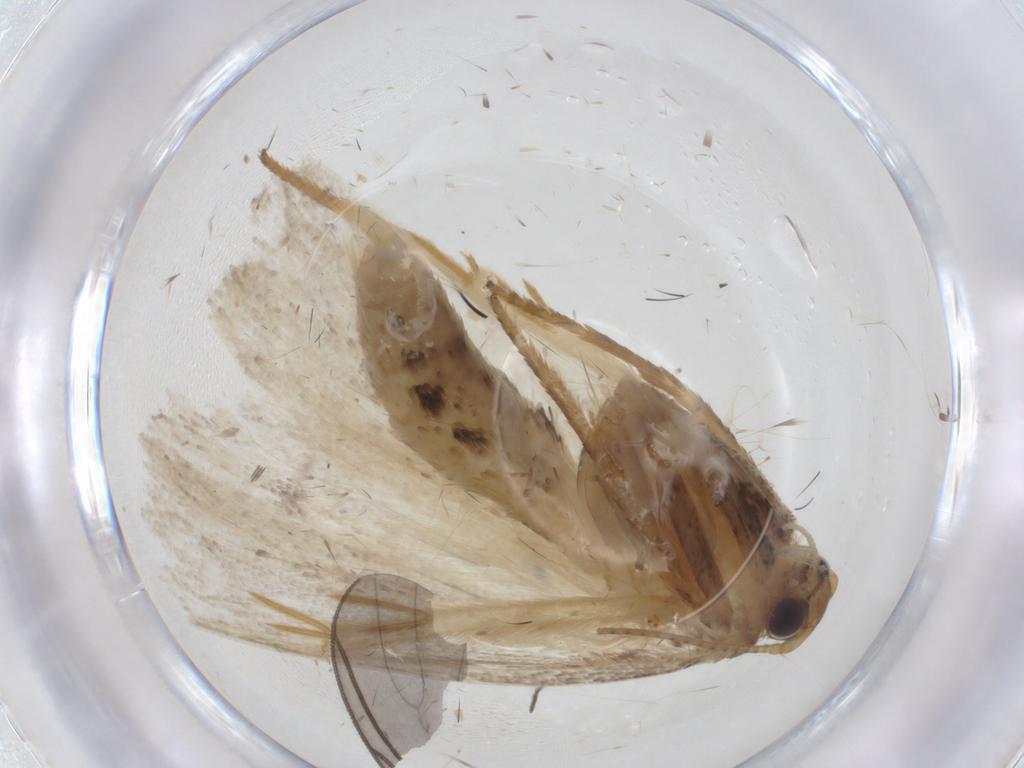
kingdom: Animalia
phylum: Arthropoda
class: Insecta
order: Lepidoptera
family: Depressariidae
